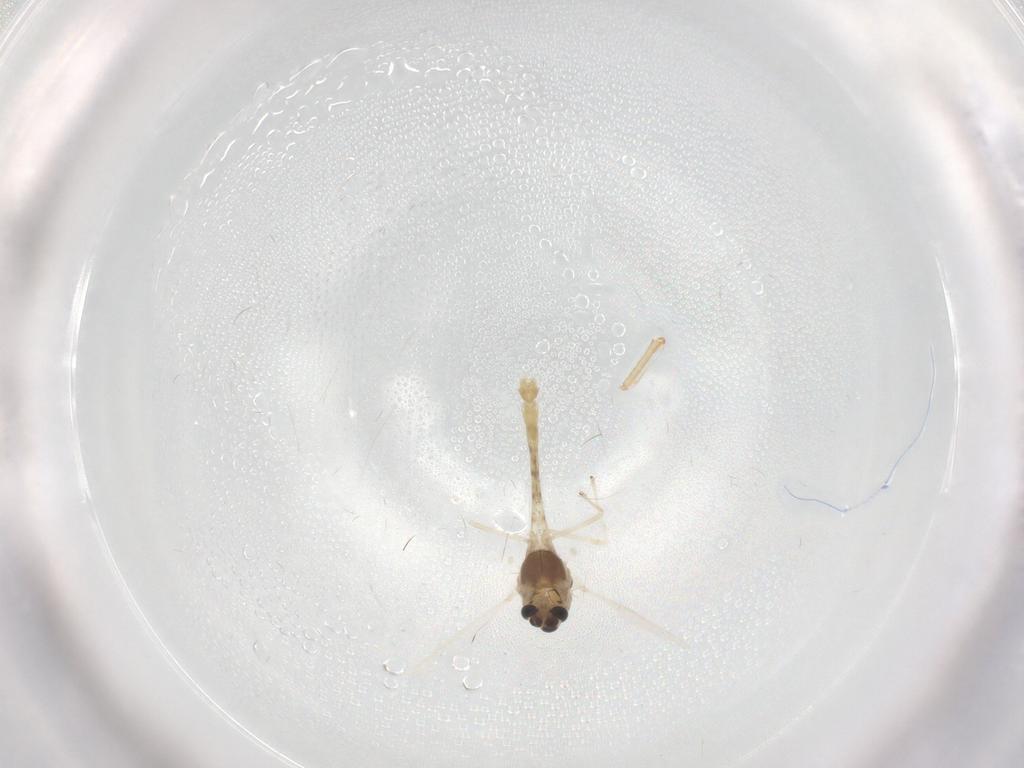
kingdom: Animalia
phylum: Arthropoda
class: Insecta
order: Diptera
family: Chironomidae
